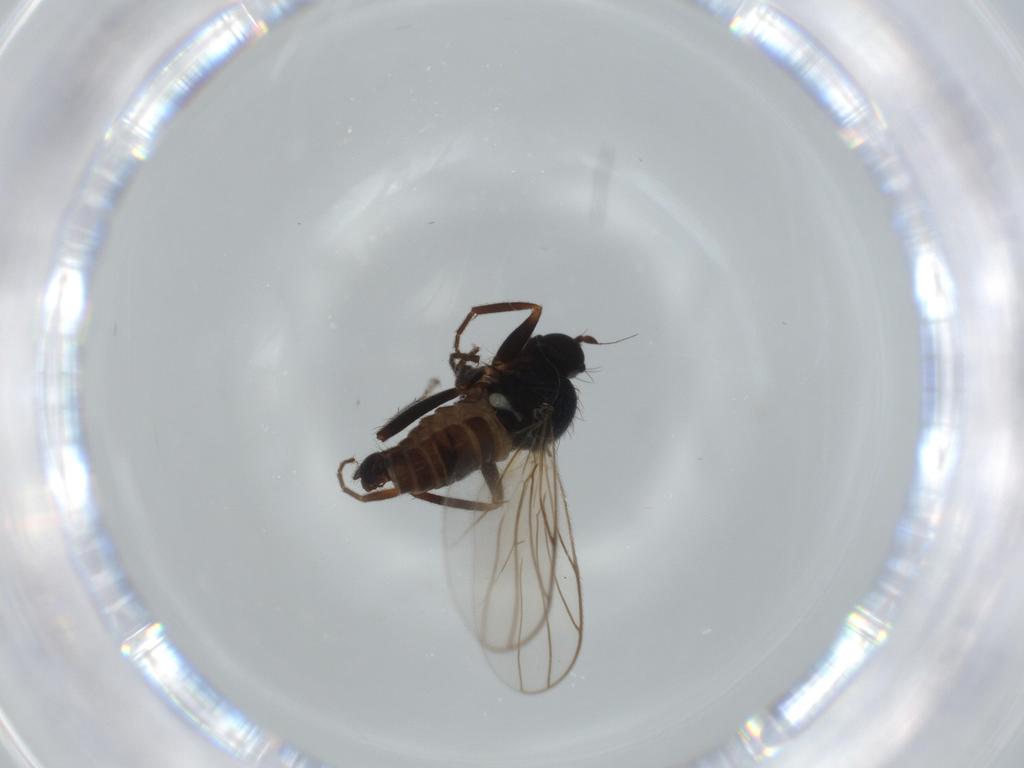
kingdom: Animalia
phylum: Arthropoda
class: Insecta
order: Diptera
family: Hybotidae
